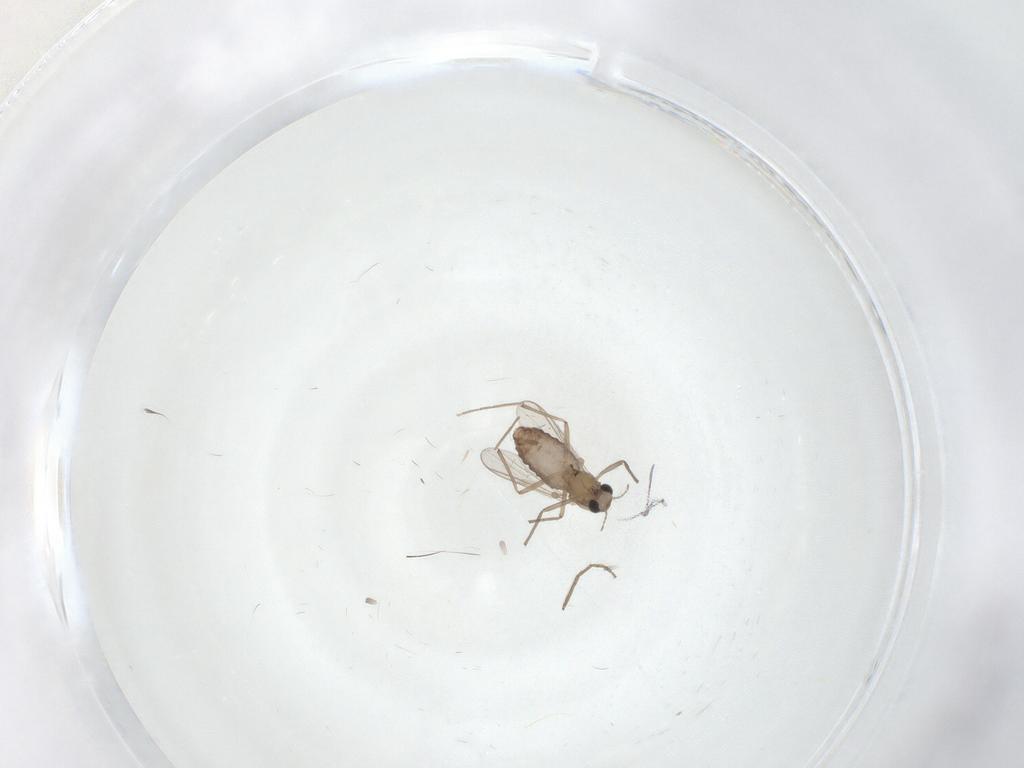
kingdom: Animalia
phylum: Arthropoda
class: Insecta
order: Diptera
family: Chironomidae
